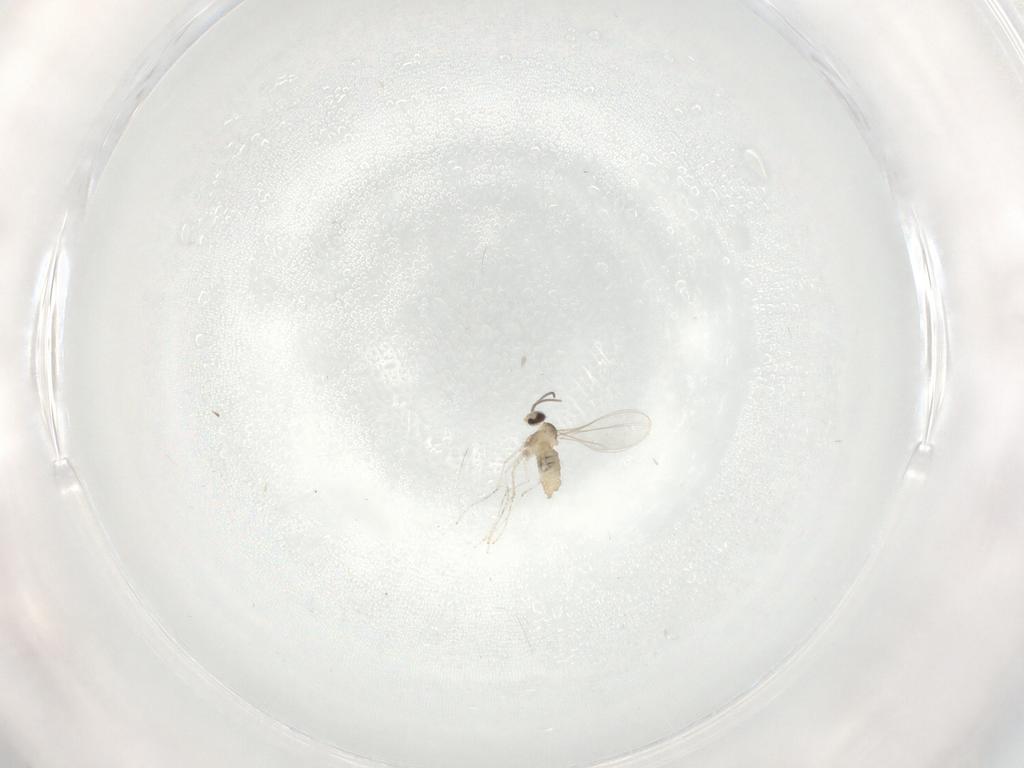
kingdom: Animalia
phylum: Arthropoda
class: Insecta
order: Diptera
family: Cecidomyiidae
